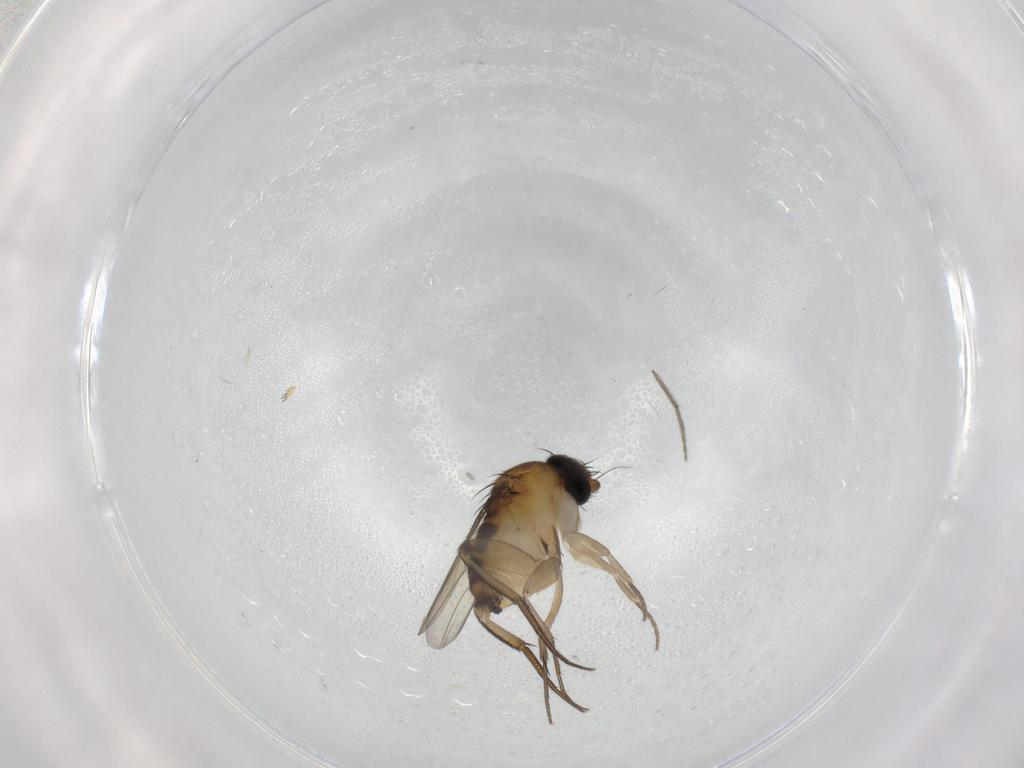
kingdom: Animalia
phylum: Arthropoda
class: Insecta
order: Diptera
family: Phoridae
